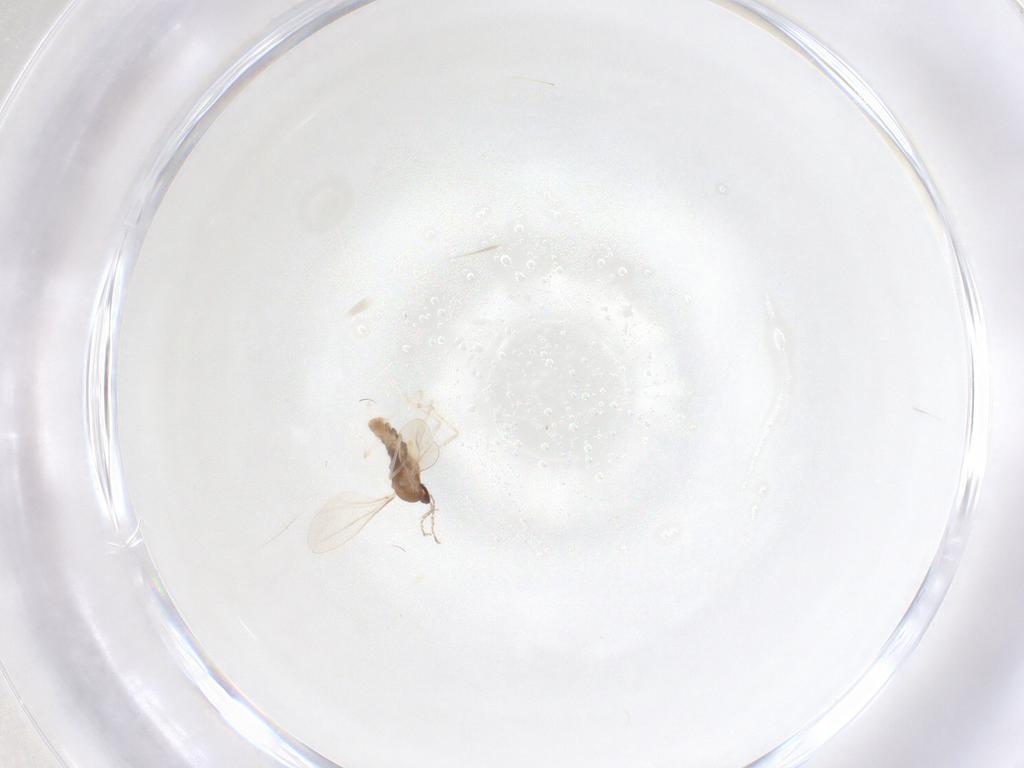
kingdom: Animalia
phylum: Arthropoda
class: Insecta
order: Diptera
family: Cecidomyiidae
